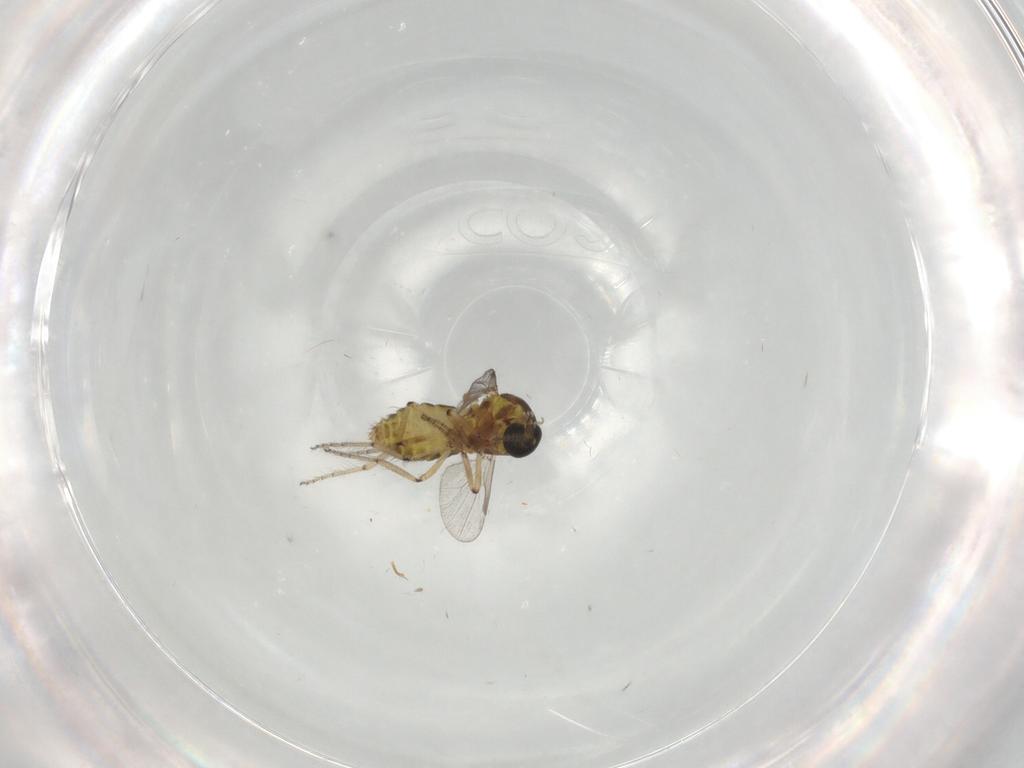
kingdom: Animalia
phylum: Arthropoda
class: Insecta
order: Diptera
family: Ceratopogonidae
